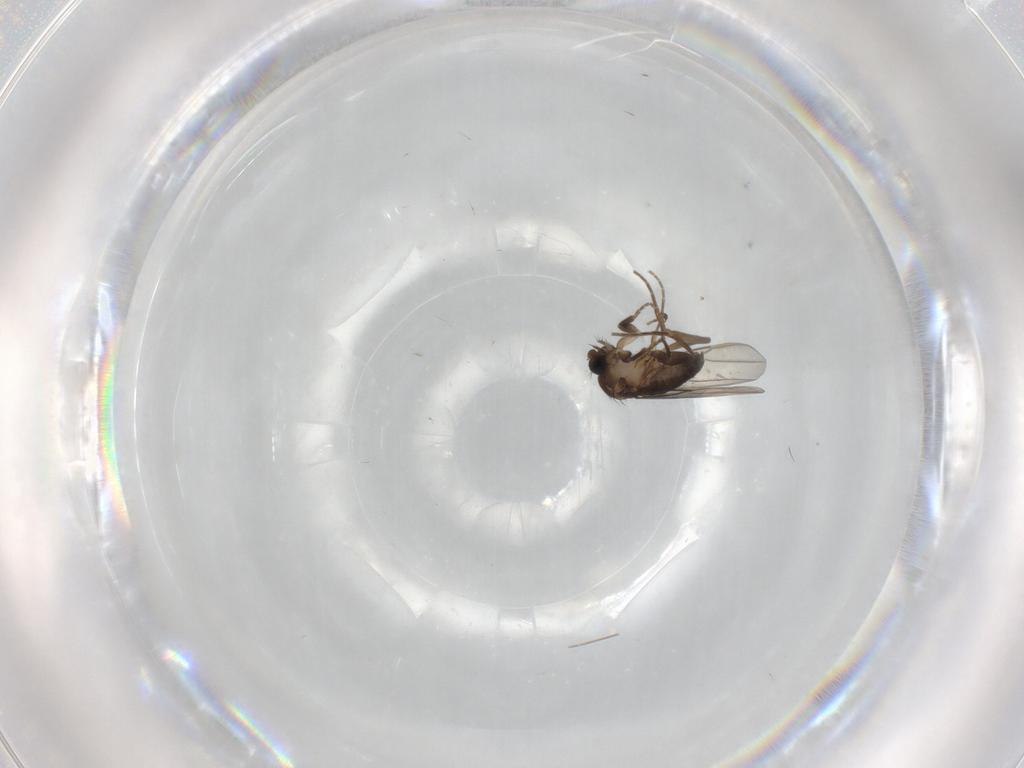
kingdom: Animalia
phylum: Arthropoda
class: Insecta
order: Diptera
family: Phoridae
